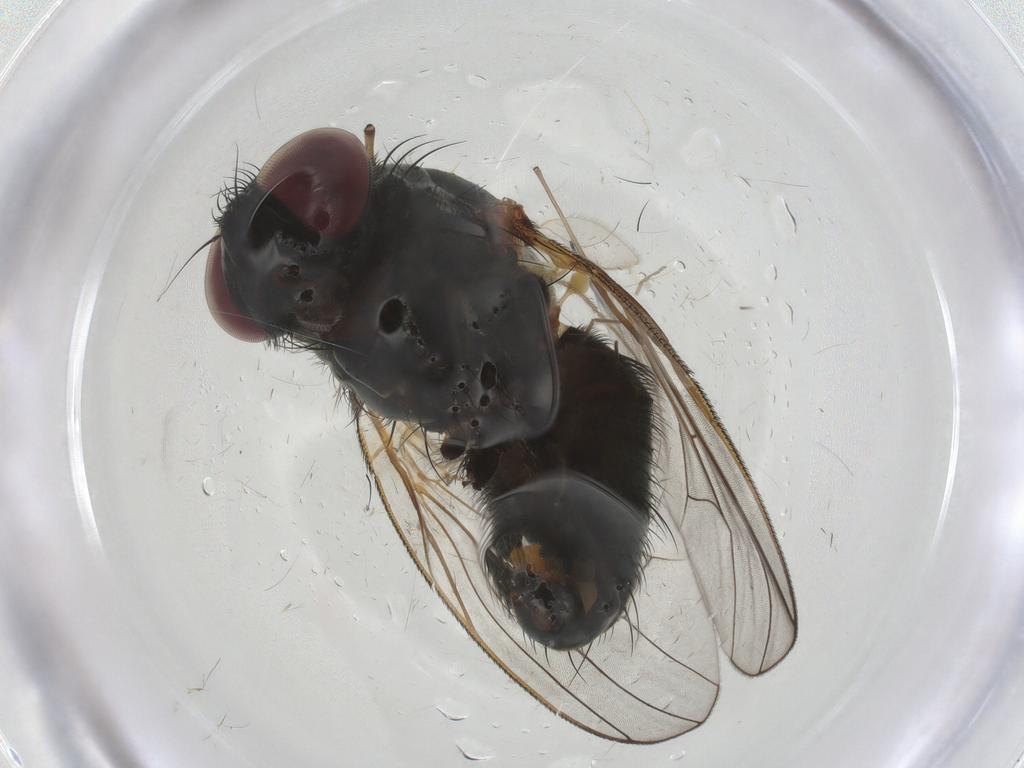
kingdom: Animalia
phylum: Arthropoda
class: Insecta
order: Diptera
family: Fannia
